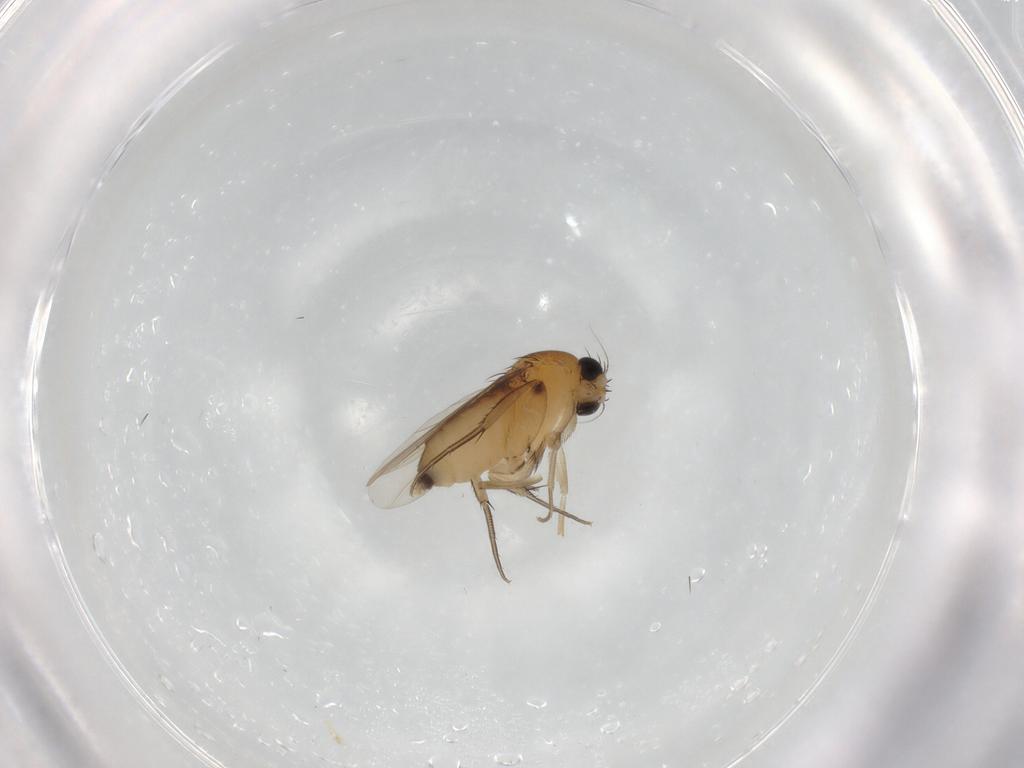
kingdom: Animalia
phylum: Arthropoda
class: Insecta
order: Diptera
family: Phoridae
